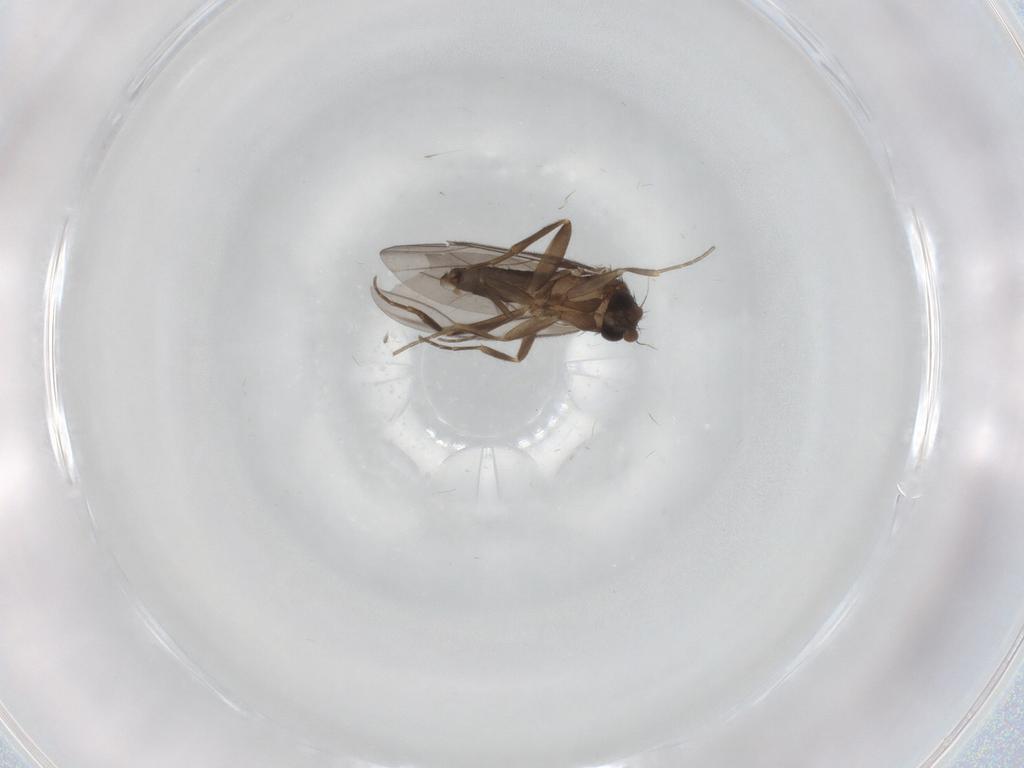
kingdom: Animalia
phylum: Arthropoda
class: Insecta
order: Diptera
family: Phoridae
